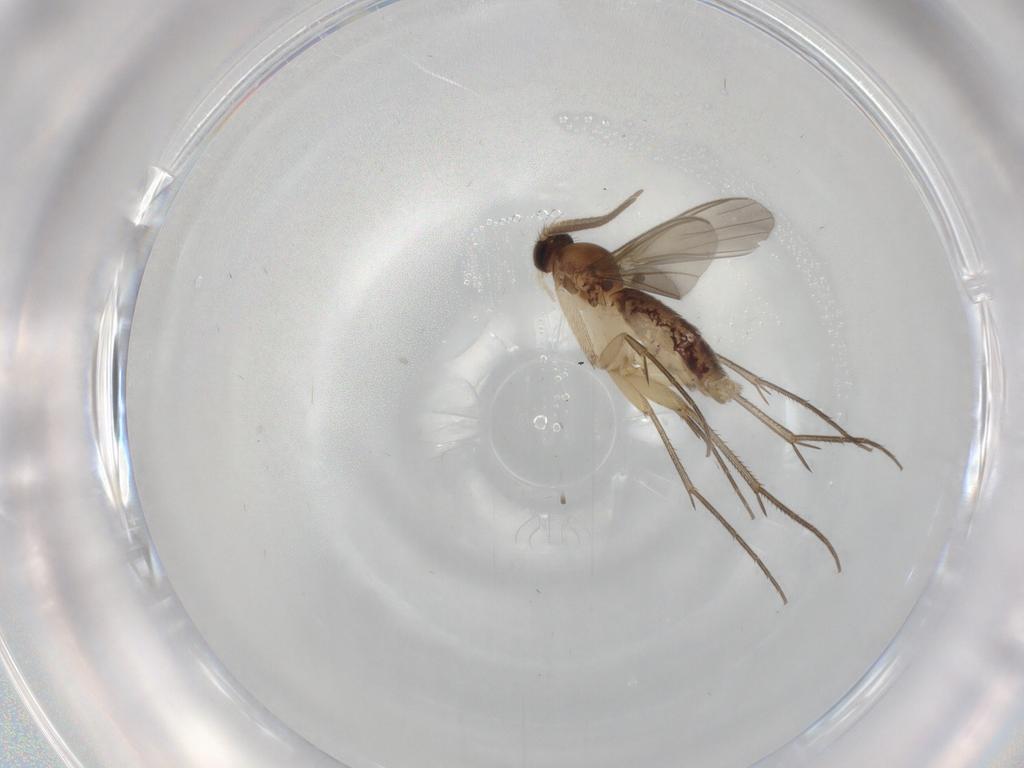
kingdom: Animalia
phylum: Arthropoda
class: Insecta
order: Diptera
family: Mycetophilidae
